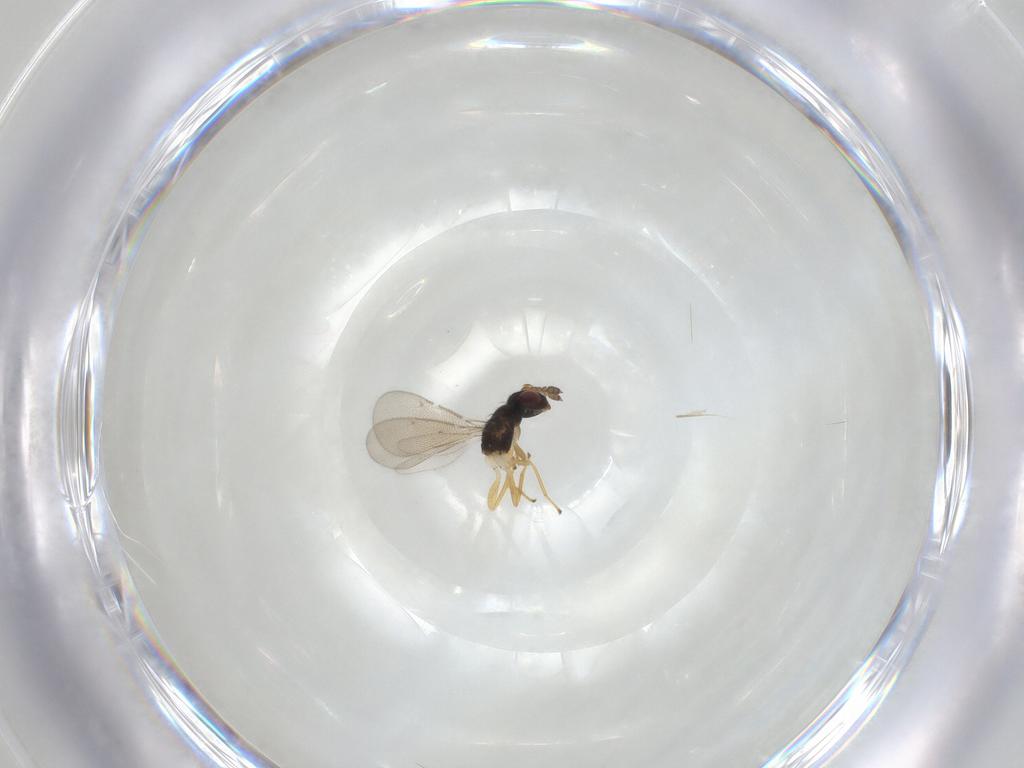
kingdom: Animalia
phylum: Arthropoda
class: Insecta
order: Hymenoptera
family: Eulophidae
